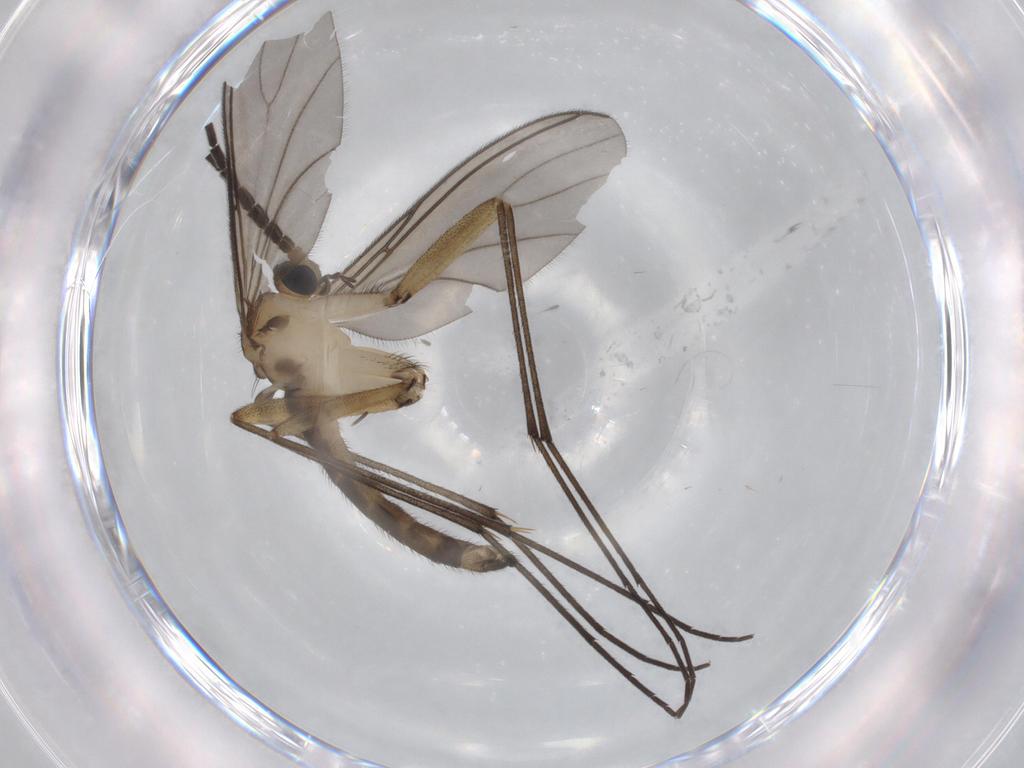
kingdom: Animalia
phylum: Arthropoda
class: Insecta
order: Diptera
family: Sciaridae
